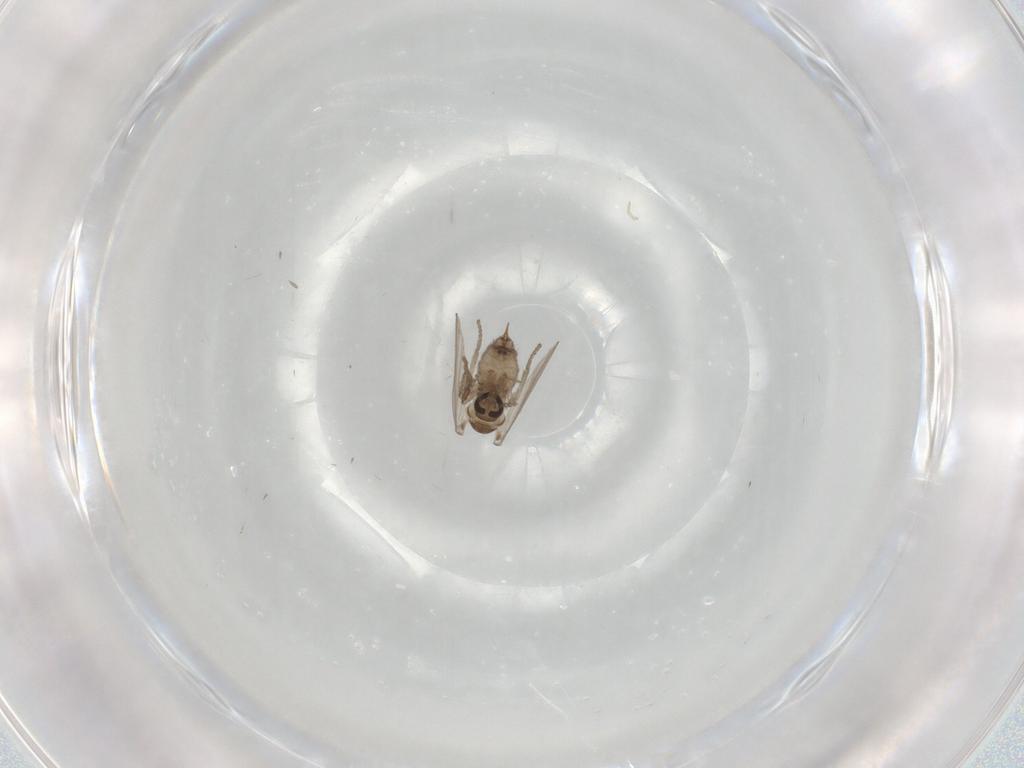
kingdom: Animalia
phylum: Arthropoda
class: Insecta
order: Diptera
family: Psychodidae
